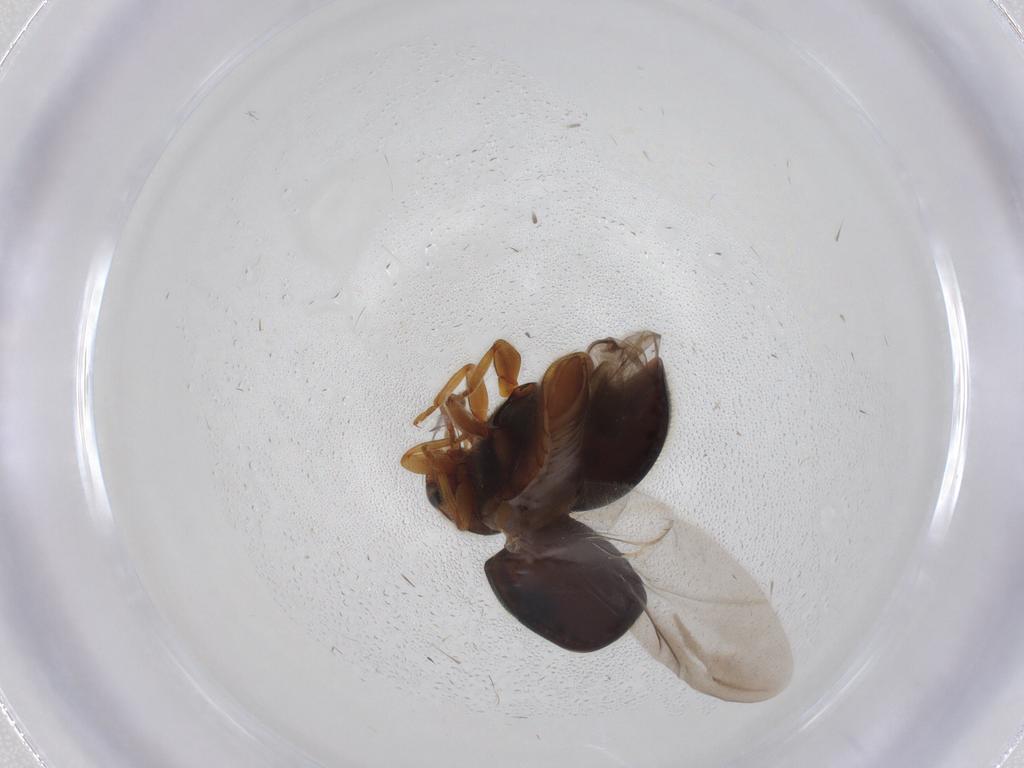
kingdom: Animalia
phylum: Arthropoda
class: Insecta
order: Coleoptera
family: Coccinellidae
